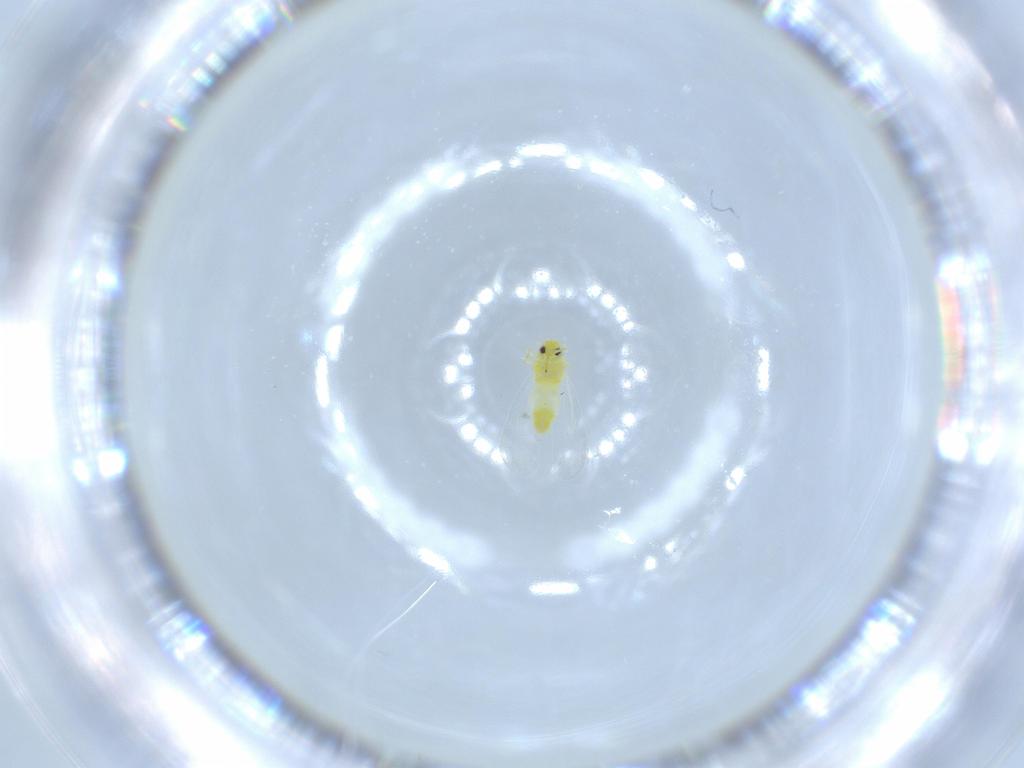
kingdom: Animalia
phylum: Arthropoda
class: Insecta
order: Hemiptera
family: Aleyrodidae
